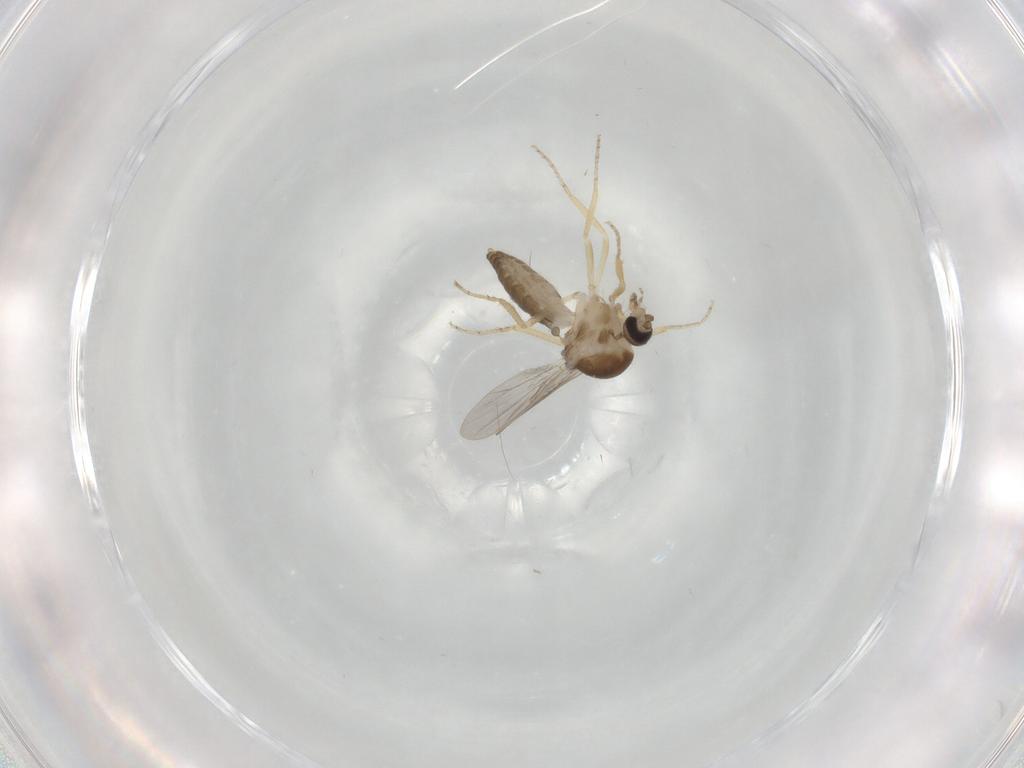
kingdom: Animalia
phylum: Arthropoda
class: Insecta
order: Diptera
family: Ceratopogonidae
